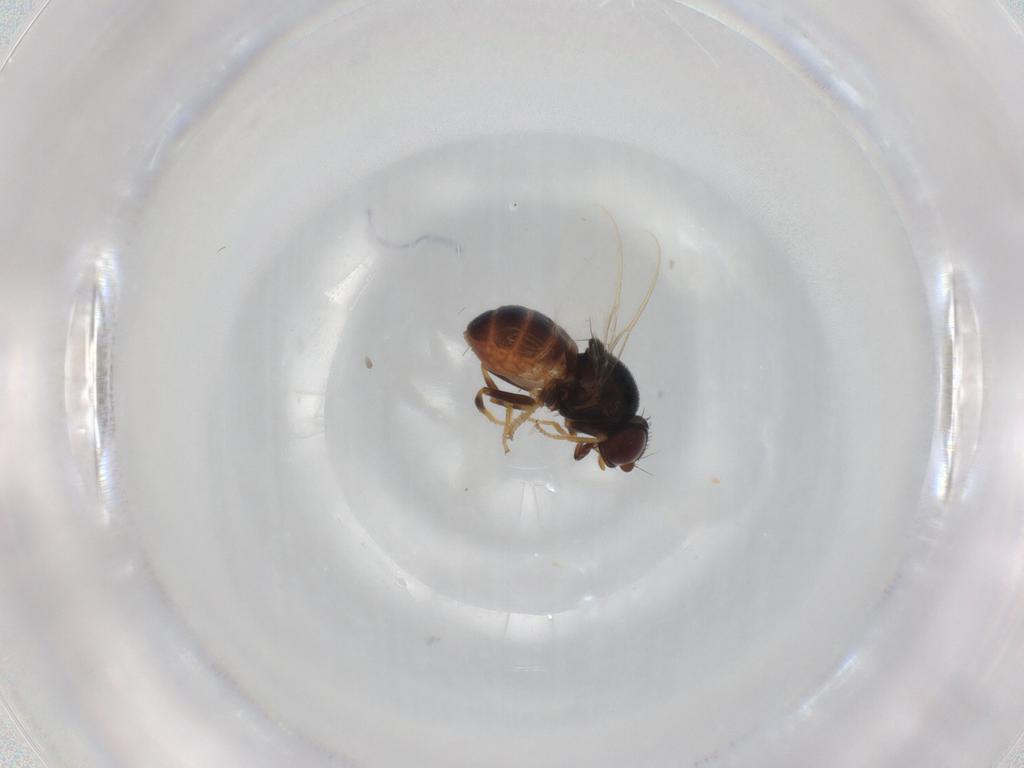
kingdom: Animalia
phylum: Arthropoda
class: Insecta
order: Diptera
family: Chloropidae
